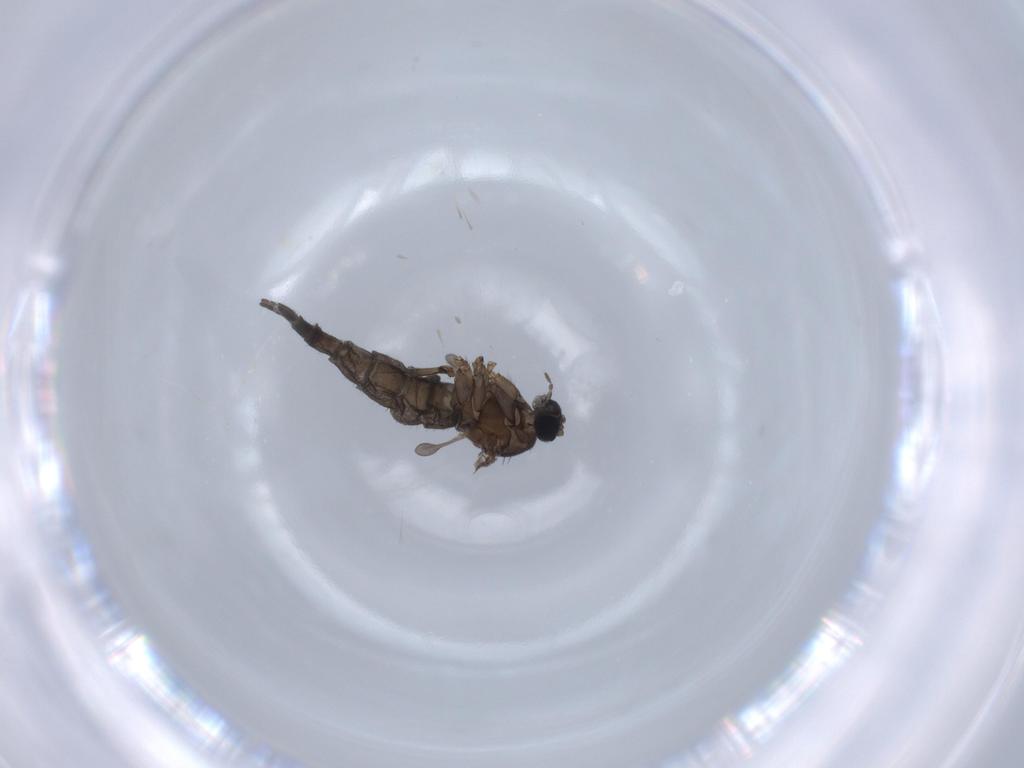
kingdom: Animalia
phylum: Arthropoda
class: Insecta
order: Diptera
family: Sciaridae
